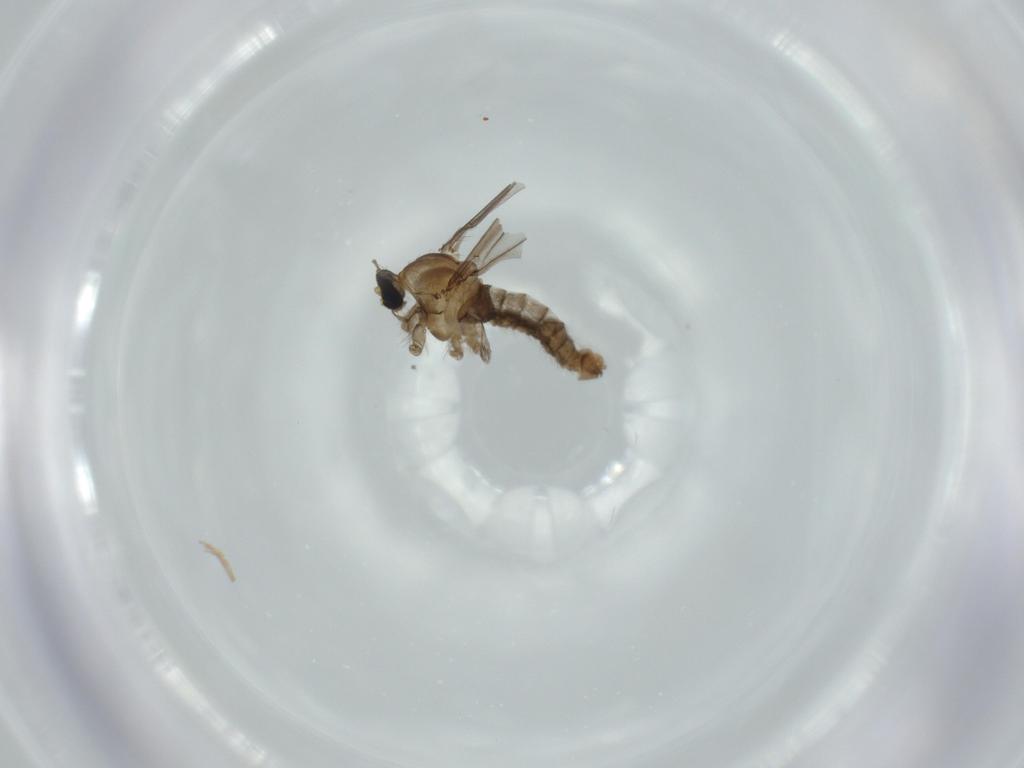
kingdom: Animalia
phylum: Arthropoda
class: Insecta
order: Diptera
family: Cecidomyiidae
